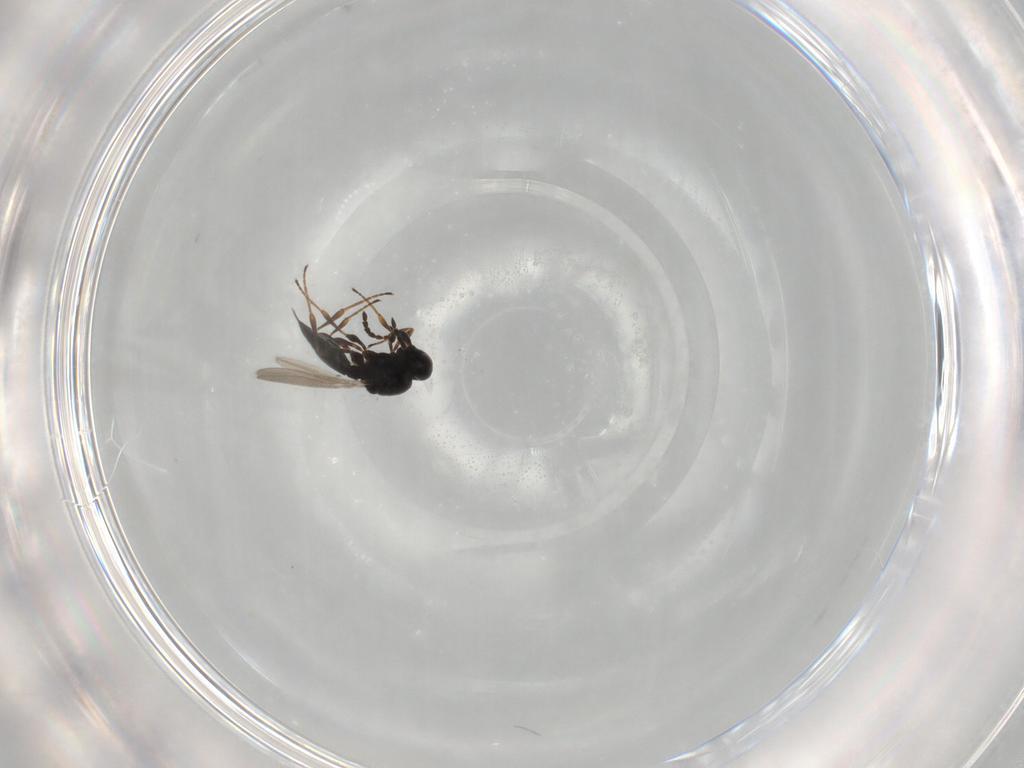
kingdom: Animalia
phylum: Arthropoda
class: Insecta
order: Hymenoptera
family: Platygastridae
